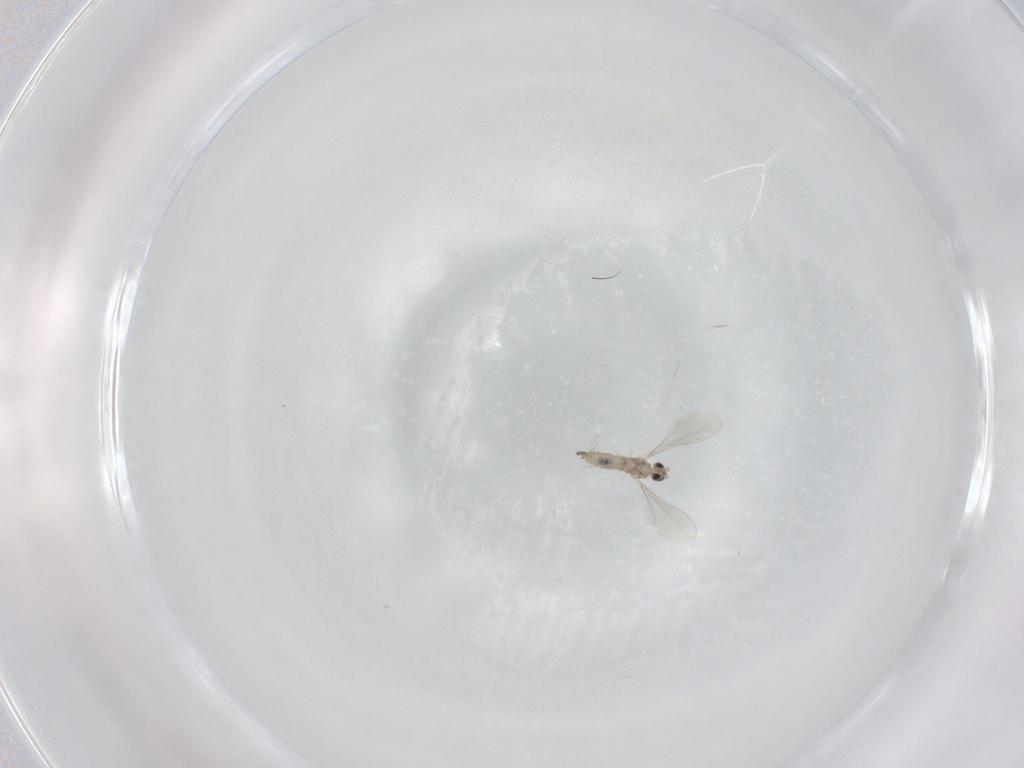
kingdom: Animalia
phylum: Arthropoda
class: Insecta
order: Diptera
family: Cecidomyiidae
